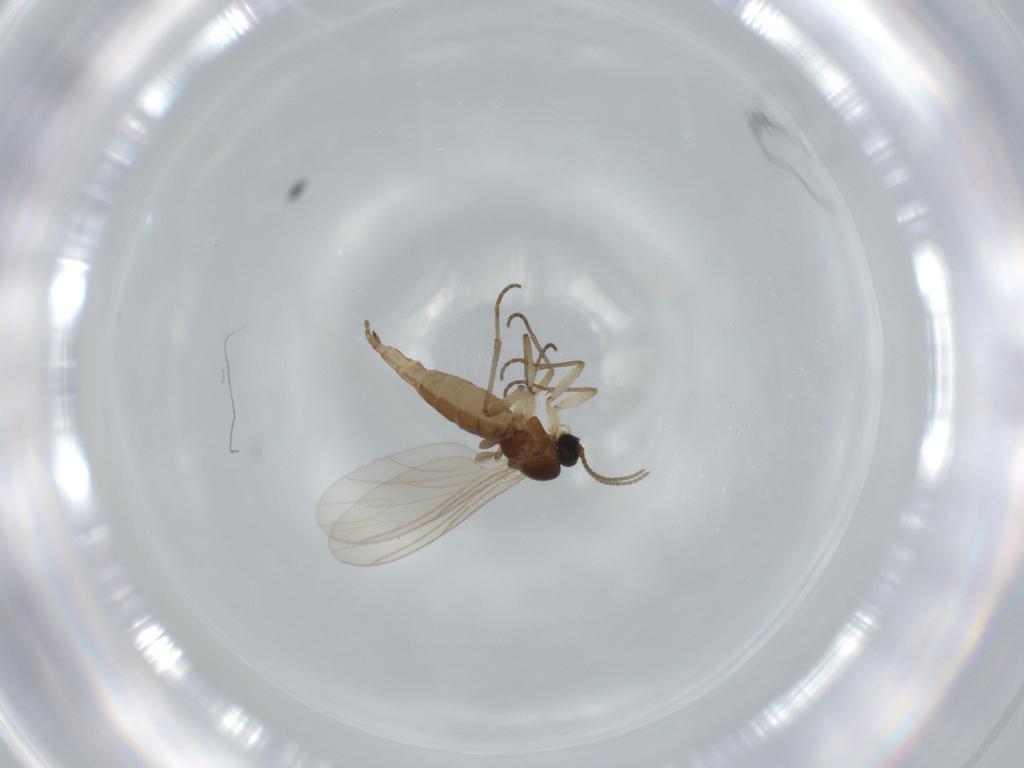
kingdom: Animalia
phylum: Arthropoda
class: Insecta
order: Diptera
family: Phoridae
